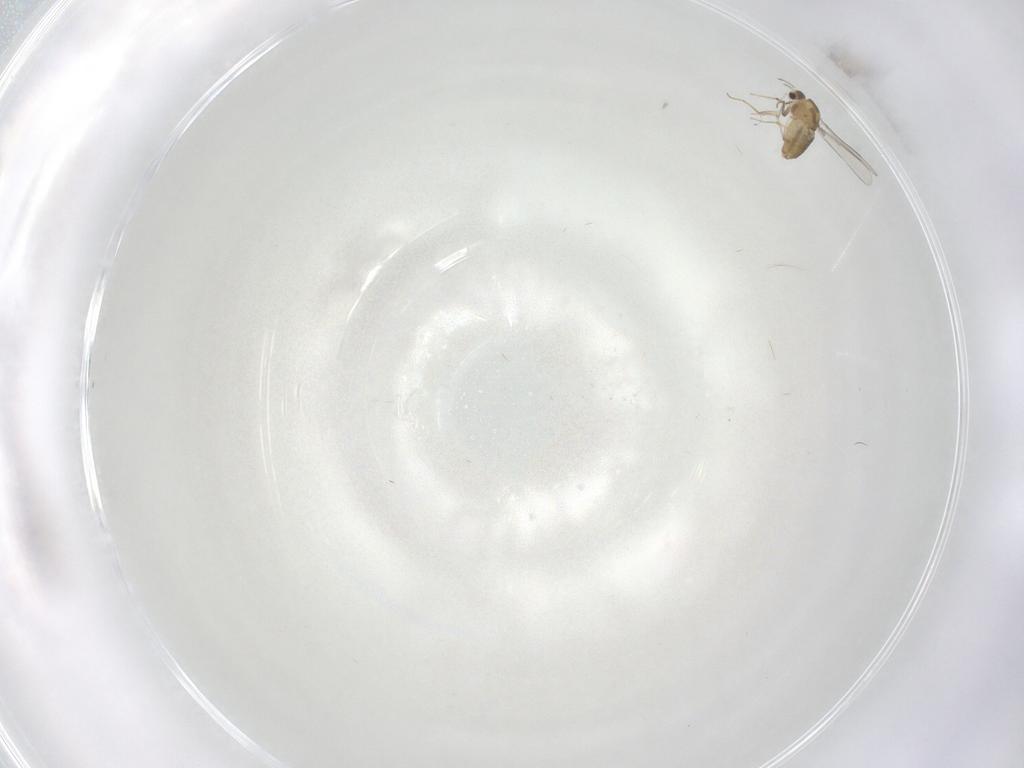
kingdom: Animalia
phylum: Arthropoda
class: Insecta
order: Diptera
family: Chironomidae
